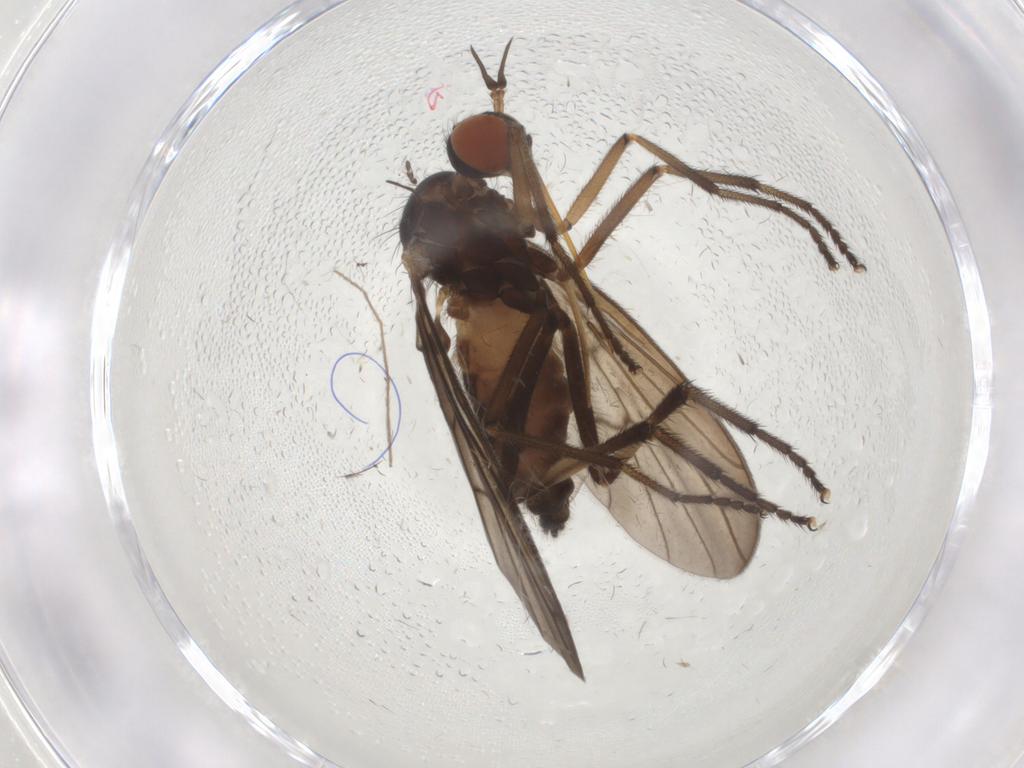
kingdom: Animalia
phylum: Arthropoda
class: Insecta
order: Diptera
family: Empididae
